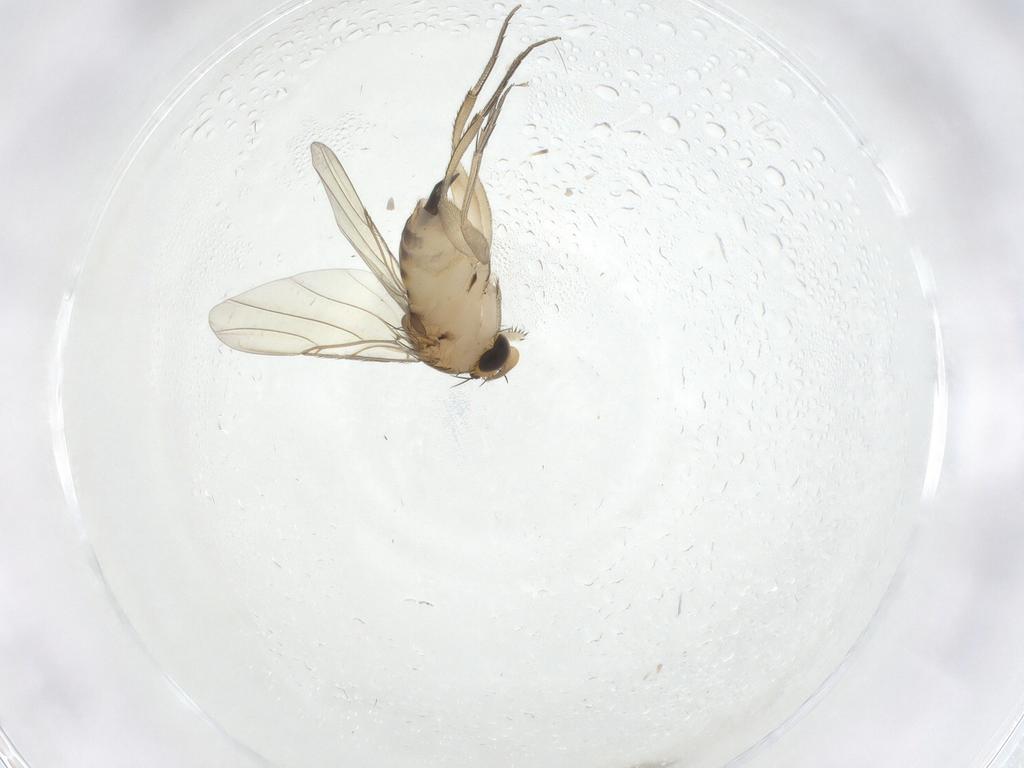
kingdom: Animalia
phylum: Arthropoda
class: Insecta
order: Diptera
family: Phoridae
